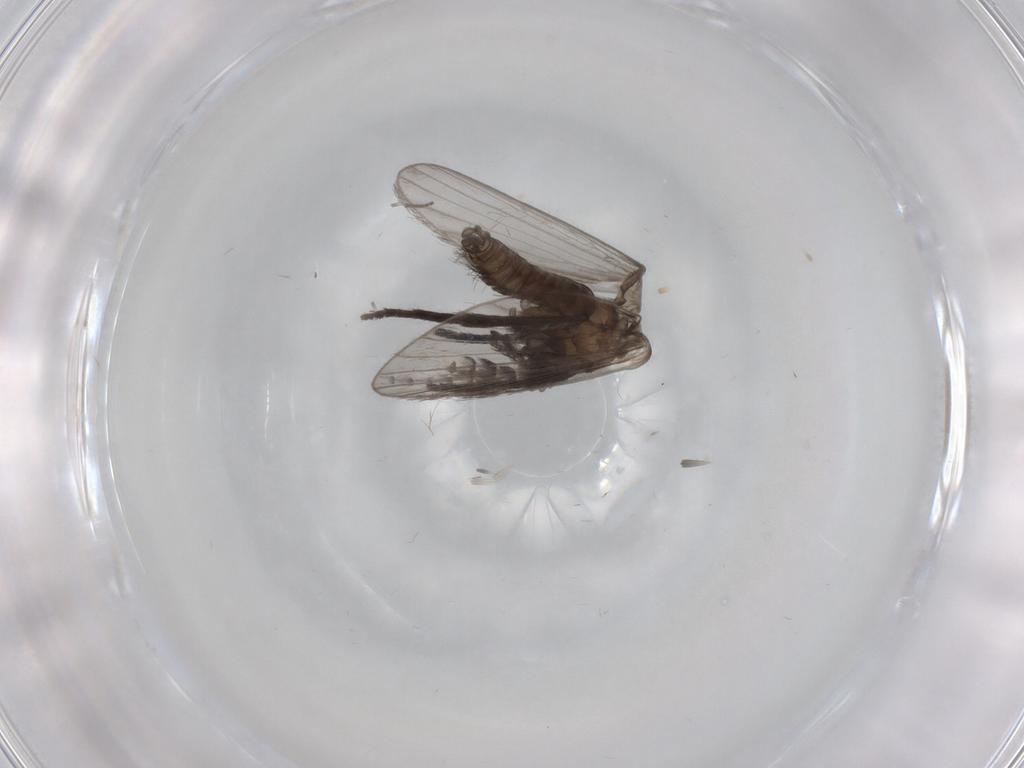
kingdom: Animalia
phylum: Arthropoda
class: Insecta
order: Diptera
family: Psychodidae
